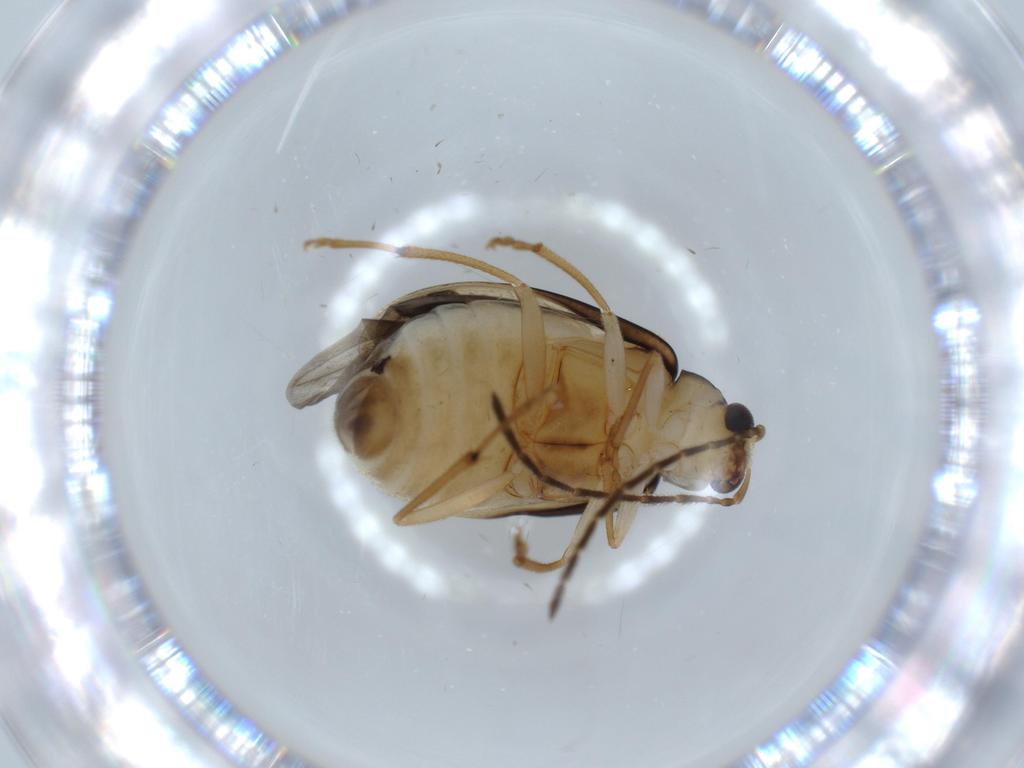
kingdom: Animalia
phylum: Arthropoda
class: Insecta
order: Coleoptera
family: Chrysomelidae
